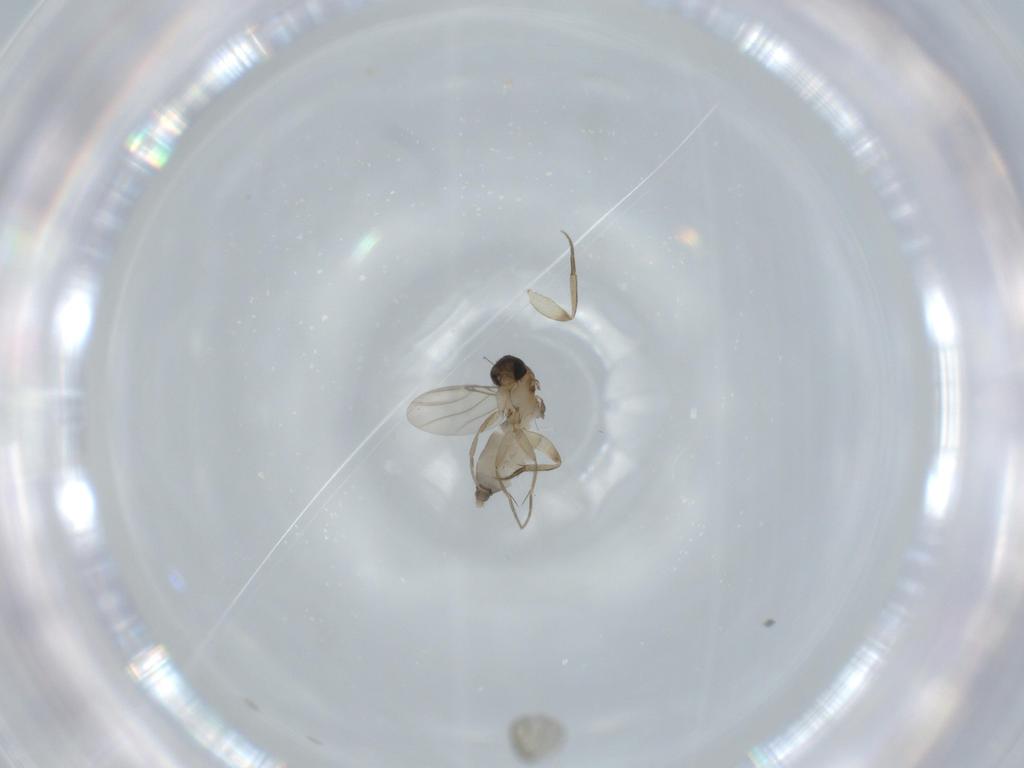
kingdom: Animalia
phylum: Arthropoda
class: Insecta
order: Diptera
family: Phoridae
